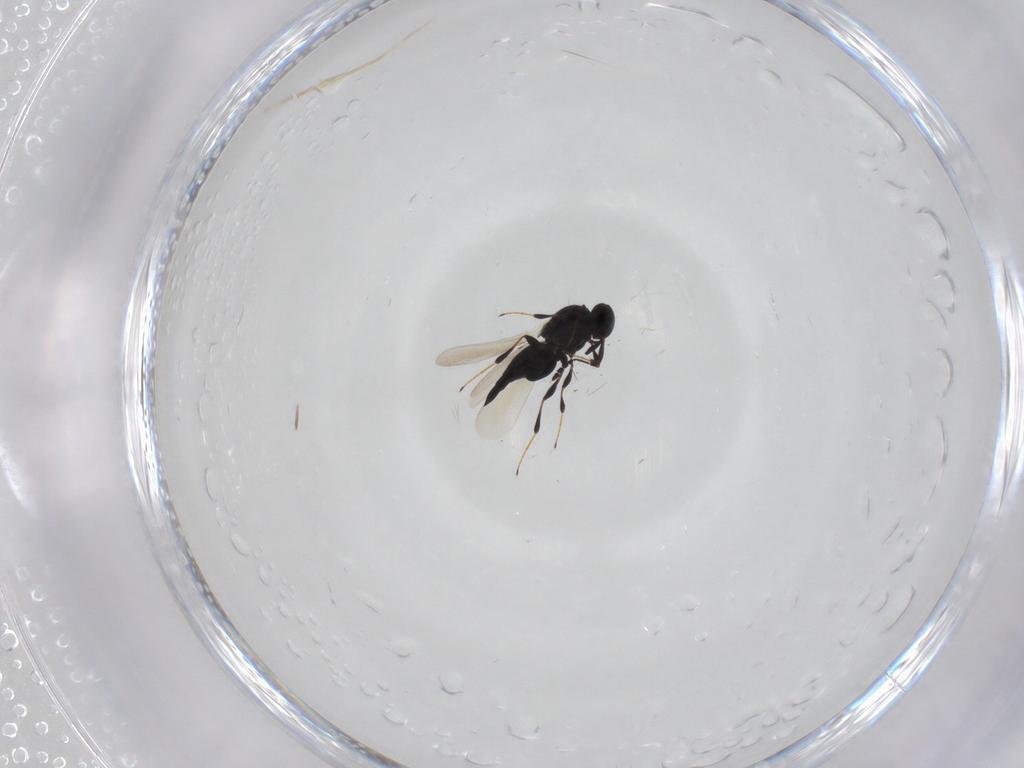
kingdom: Animalia
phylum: Arthropoda
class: Insecta
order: Hymenoptera
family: Platygastridae
